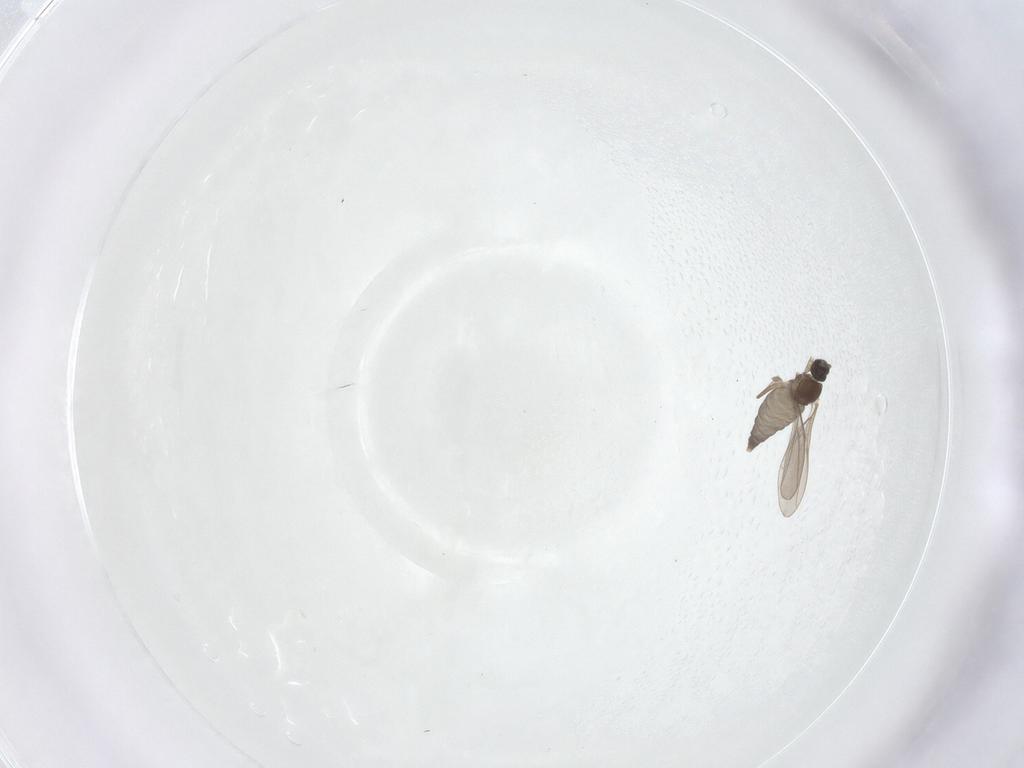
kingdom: Animalia
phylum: Arthropoda
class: Insecta
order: Diptera
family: Cecidomyiidae
